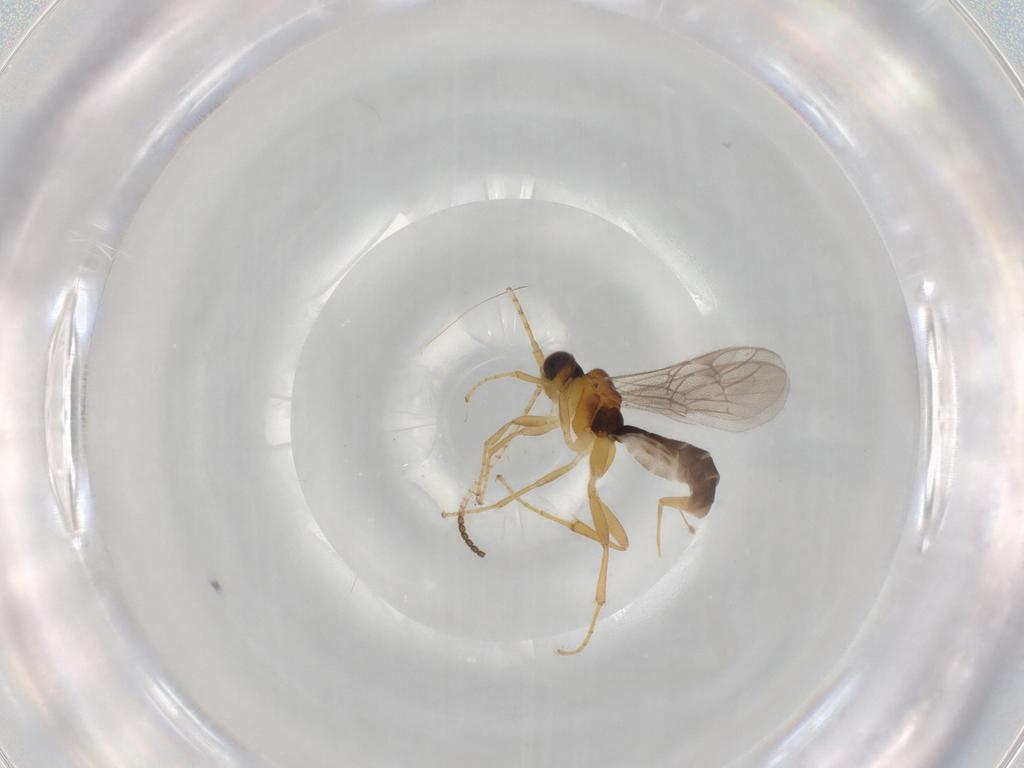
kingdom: Animalia
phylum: Arthropoda
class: Insecta
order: Hymenoptera
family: Ichneumonidae
